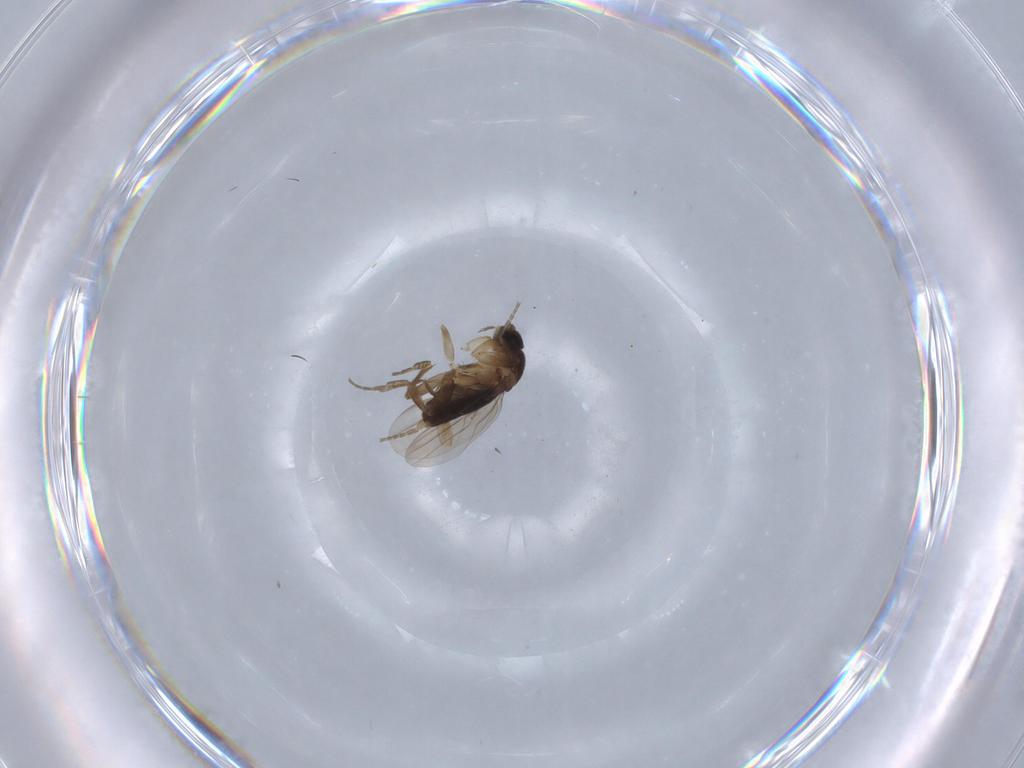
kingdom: Animalia
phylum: Arthropoda
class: Insecta
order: Diptera
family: Phoridae
